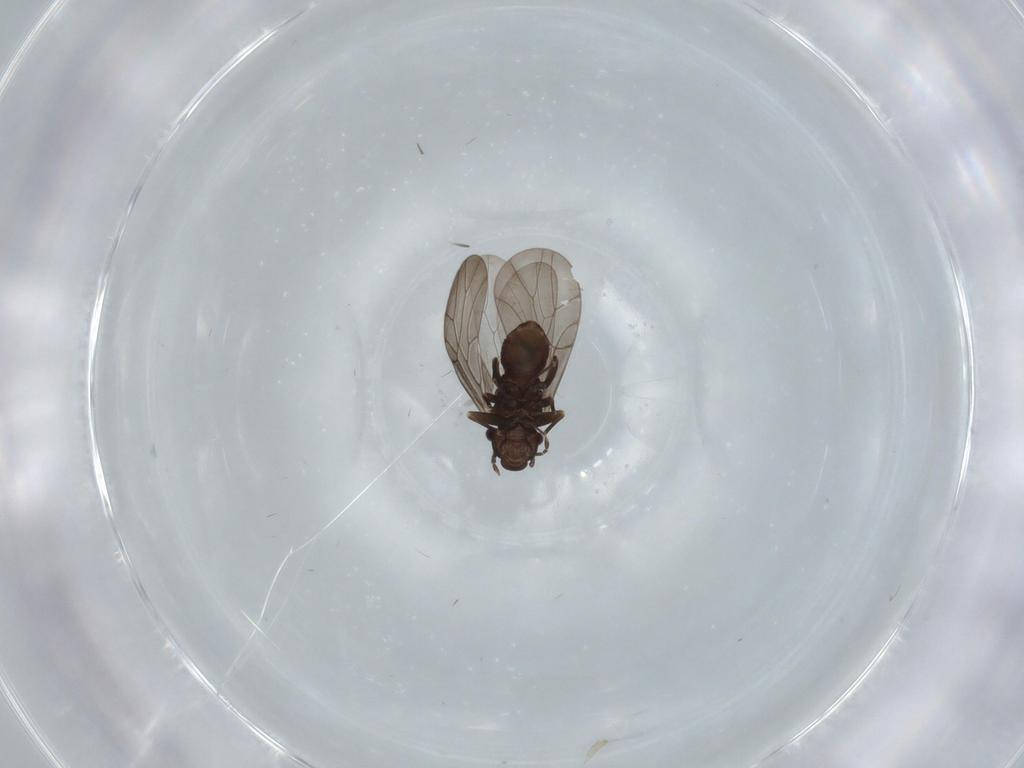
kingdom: Animalia
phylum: Arthropoda
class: Insecta
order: Psocodea
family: Lepidopsocidae
